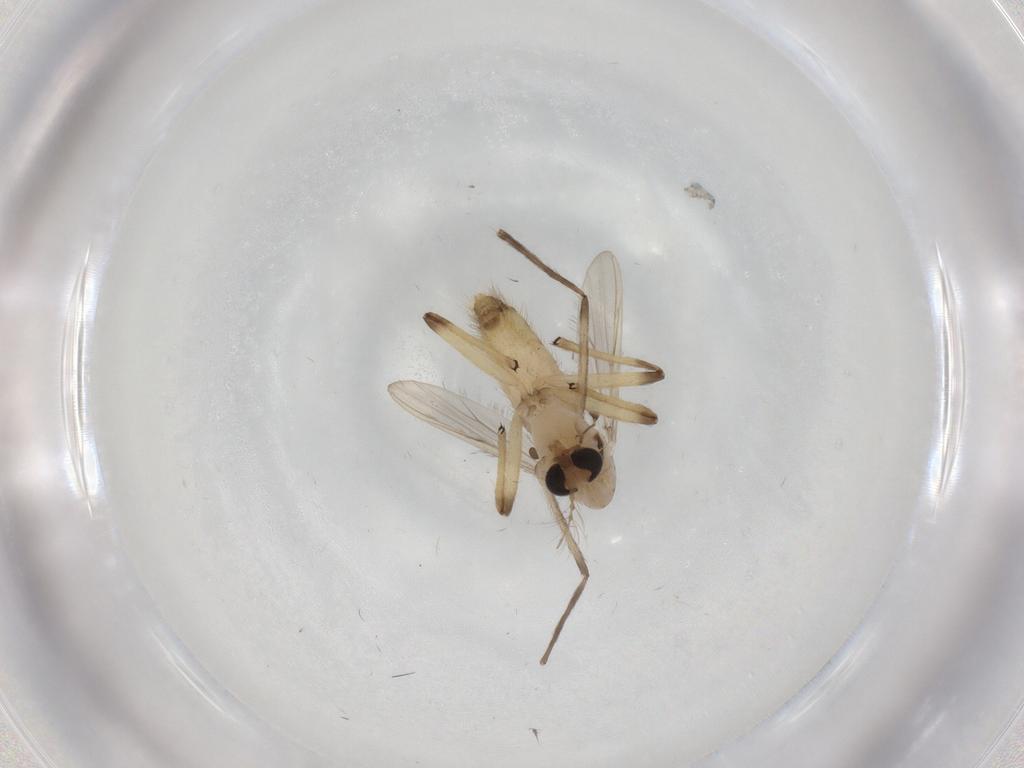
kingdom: Animalia
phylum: Arthropoda
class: Insecta
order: Diptera
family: Chironomidae
